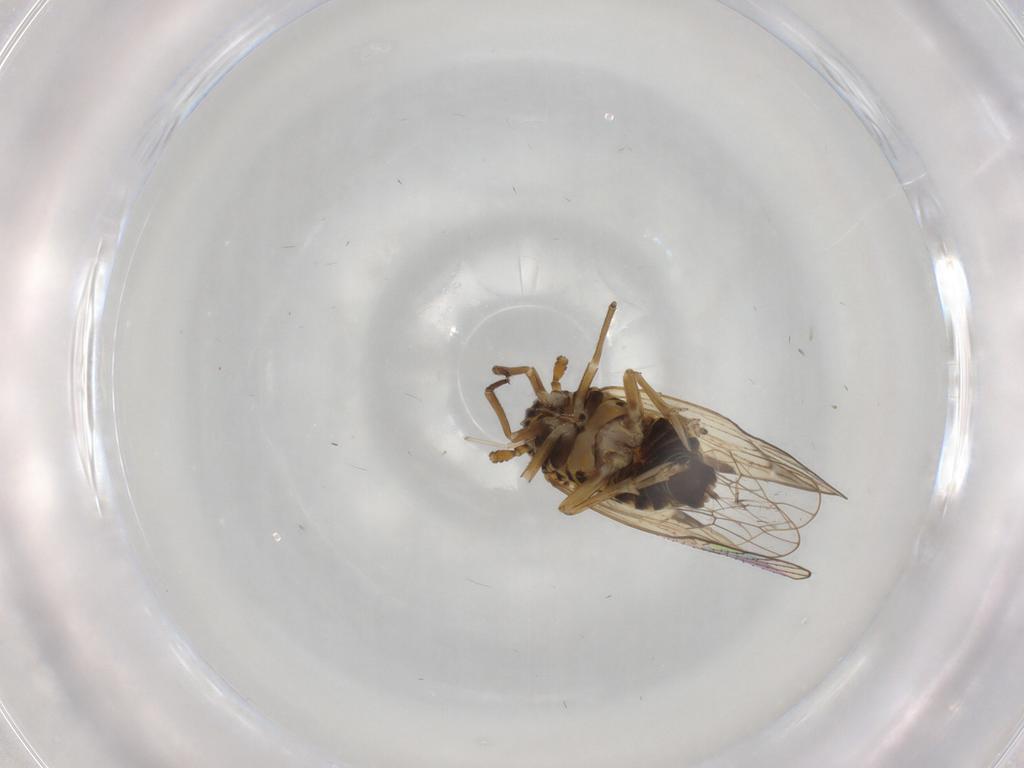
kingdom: Animalia
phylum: Arthropoda
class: Insecta
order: Hemiptera
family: Delphacidae
